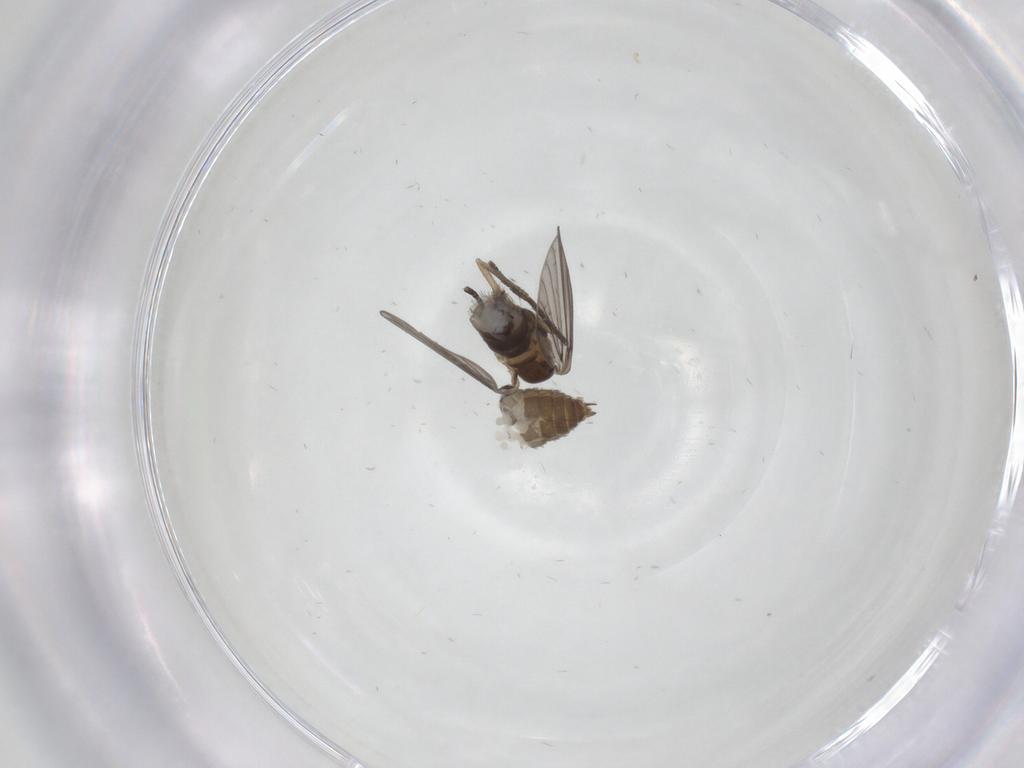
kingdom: Animalia
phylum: Arthropoda
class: Insecta
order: Diptera
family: Psychodidae
